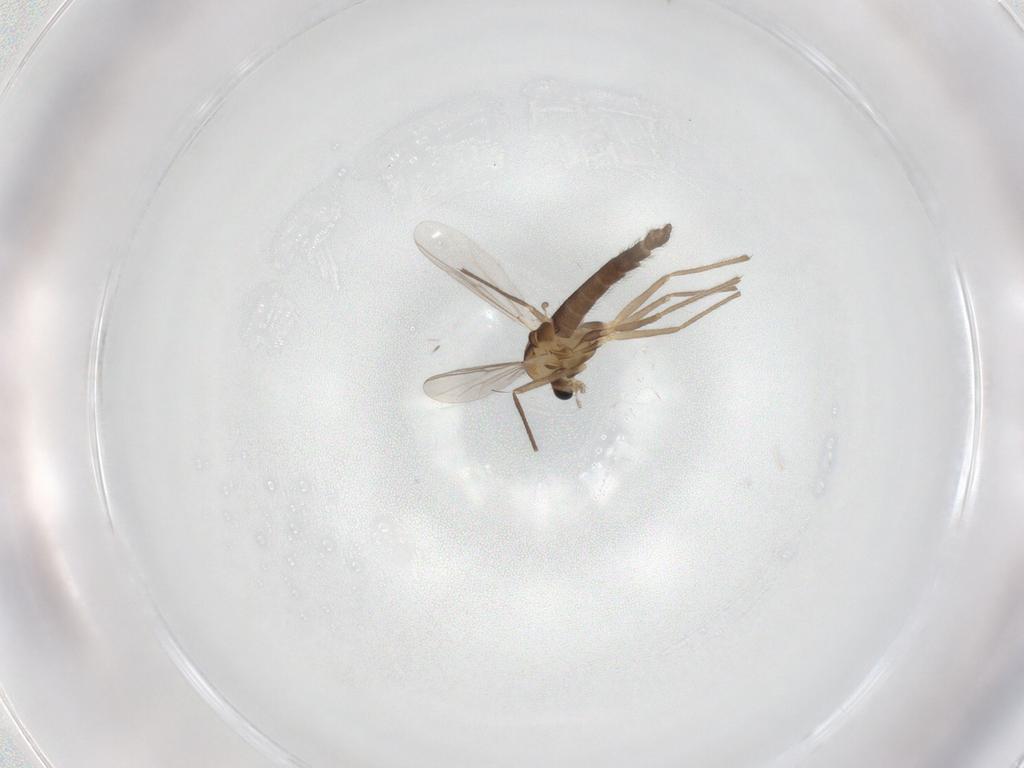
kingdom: Animalia
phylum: Arthropoda
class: Insecta
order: Diptera
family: Chironomidae
